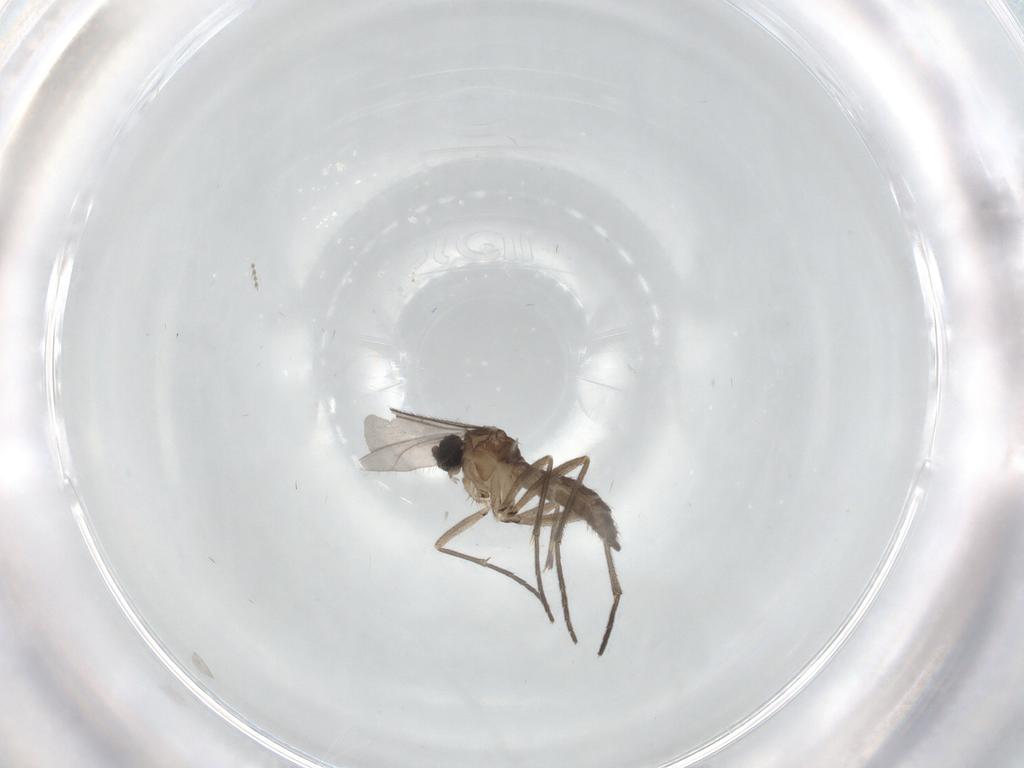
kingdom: Animalia
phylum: Arthropoda
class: Insecta
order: Diptera
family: Sciaridae
